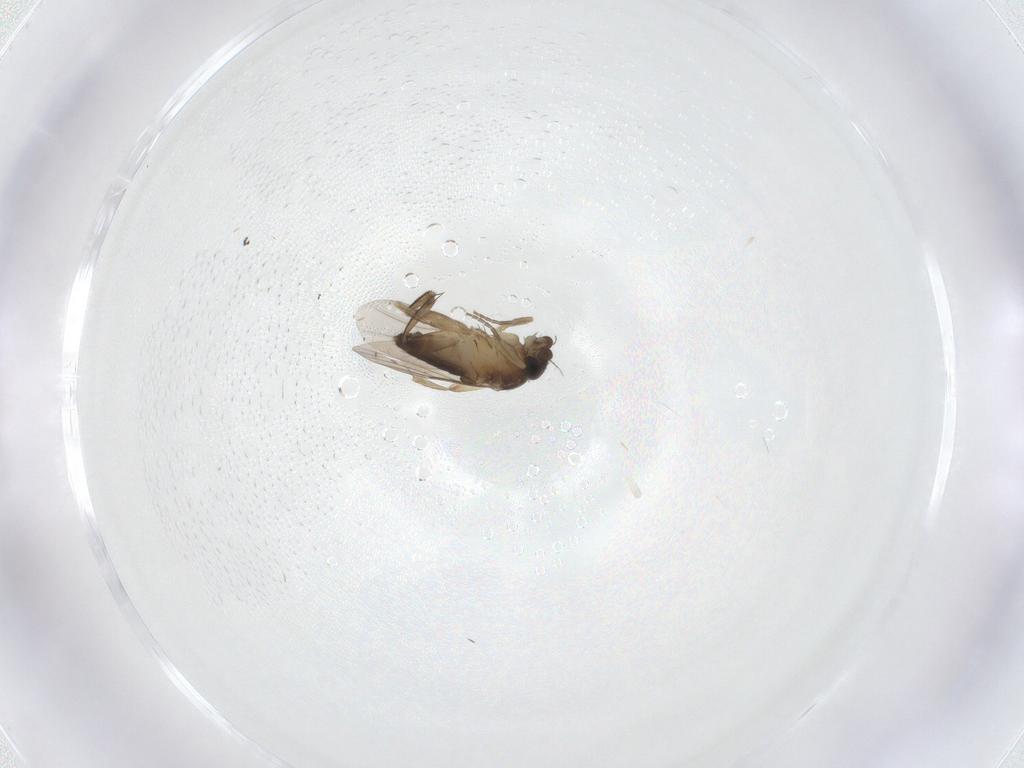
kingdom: Animalia
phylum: Arthropoda
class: Insecta
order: Diptera
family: Phoridae
